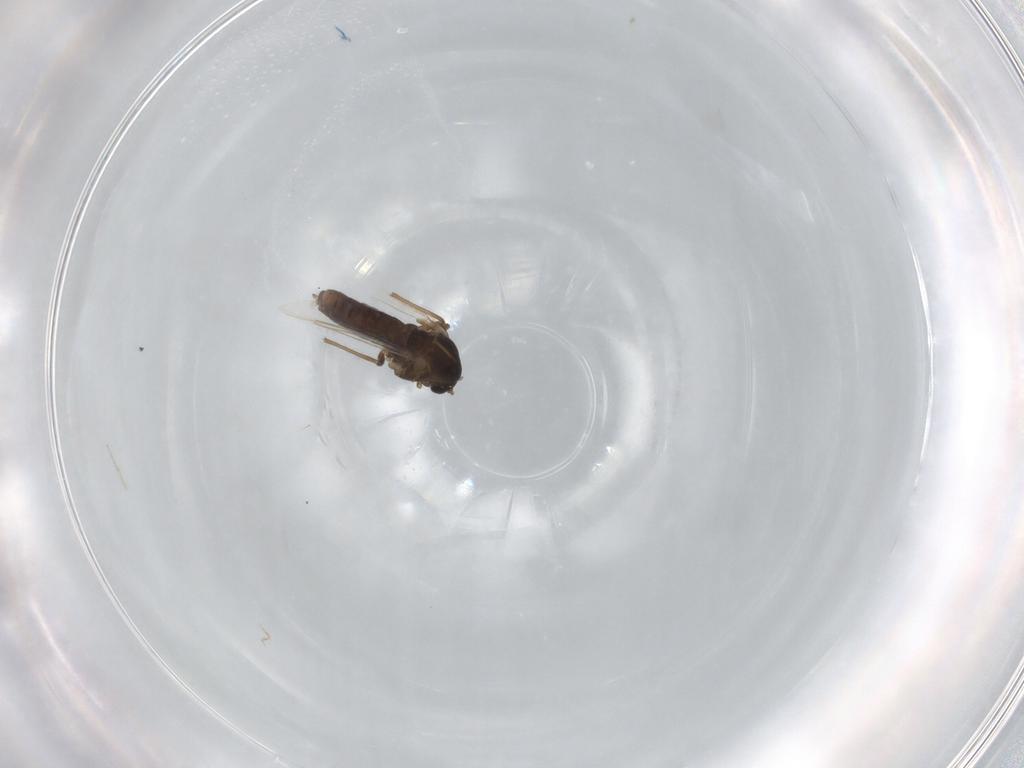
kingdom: Animalia
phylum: Arthropoda
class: Insecta
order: Diptera
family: Chironomidae
